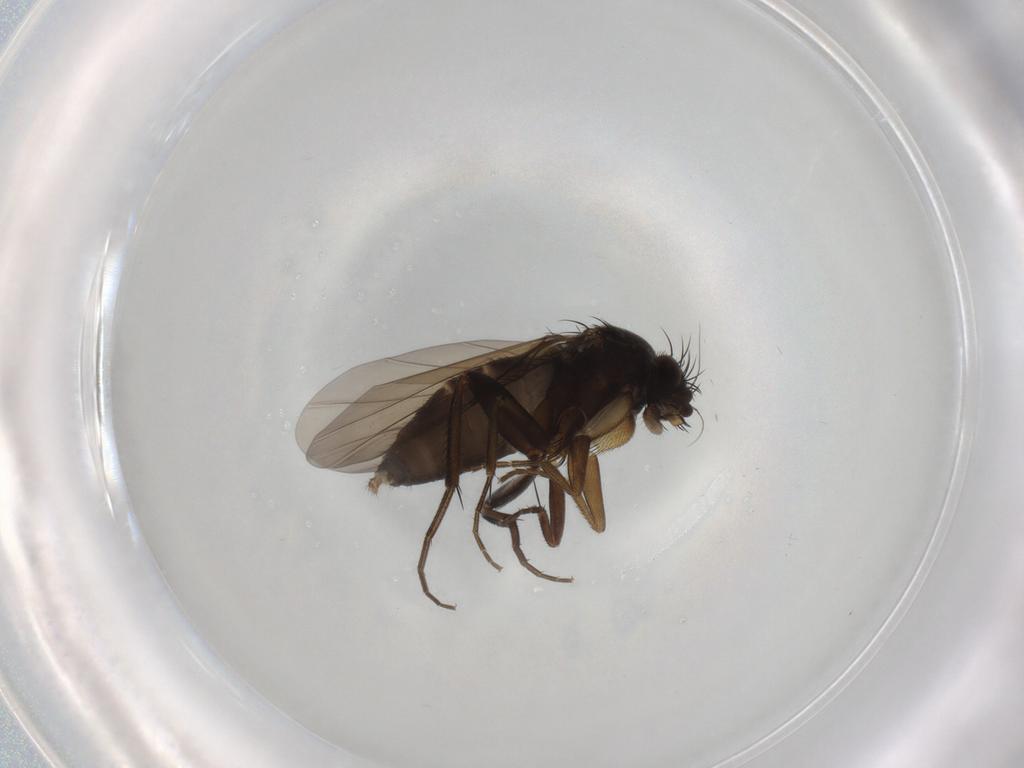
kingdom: Animalia
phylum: Arthropoda
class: Insecta
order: Diptera
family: Phoridae
